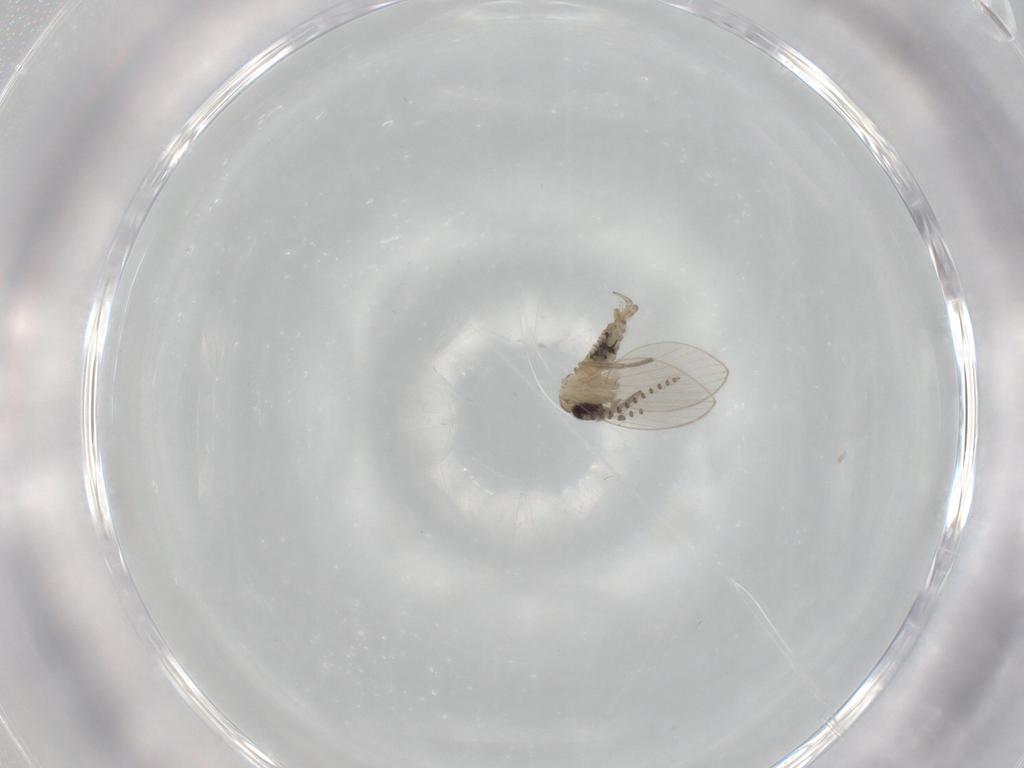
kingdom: Animalia
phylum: Arthropoda
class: Insecta
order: Diptera
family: Psychodidae
